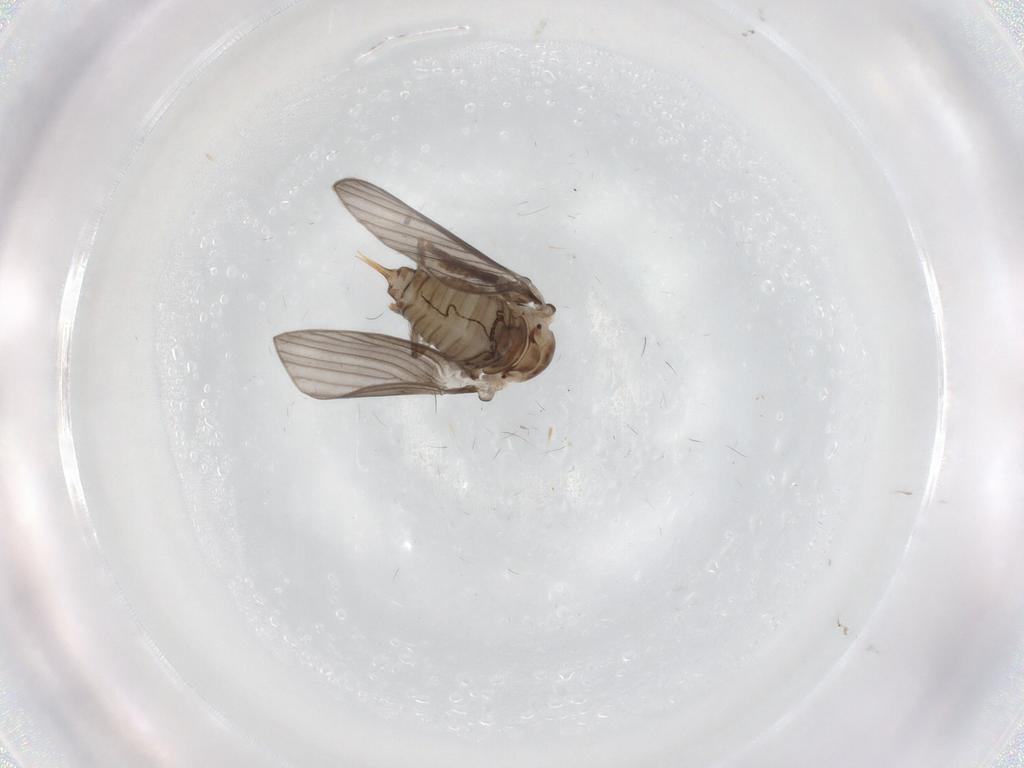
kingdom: Animalia
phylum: Arthropoda
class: Insecta
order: Diptera
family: Psychodidae
